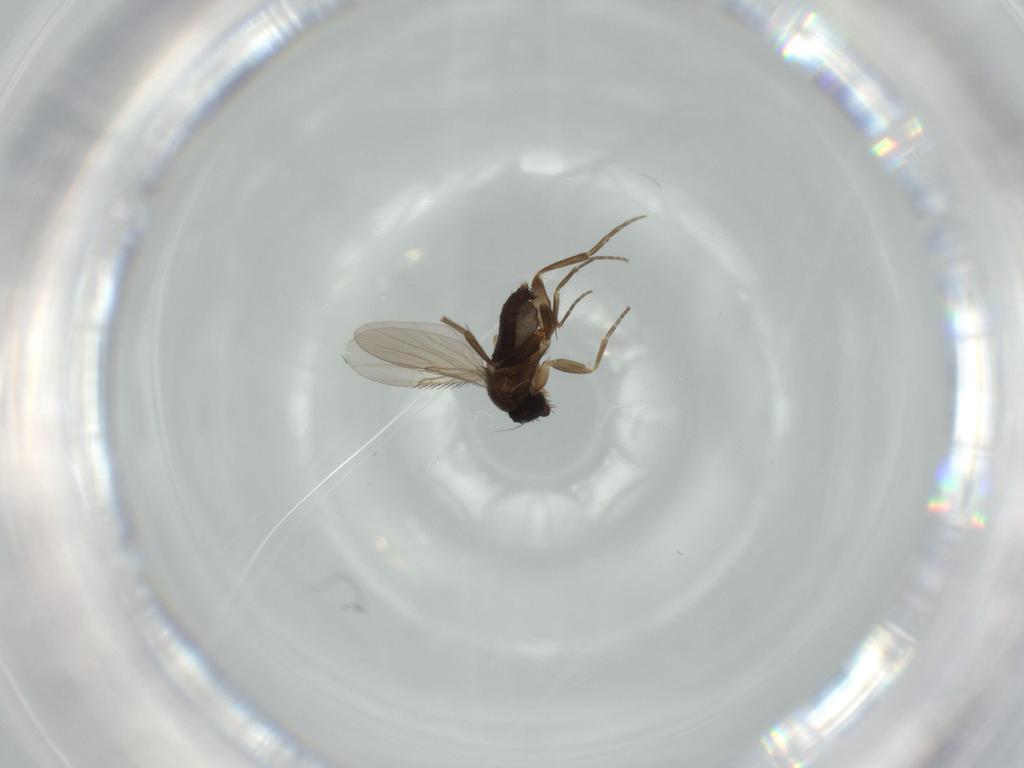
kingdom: Animalia
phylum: Arthropoda
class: Insecta
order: Diptera
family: Phoridae
